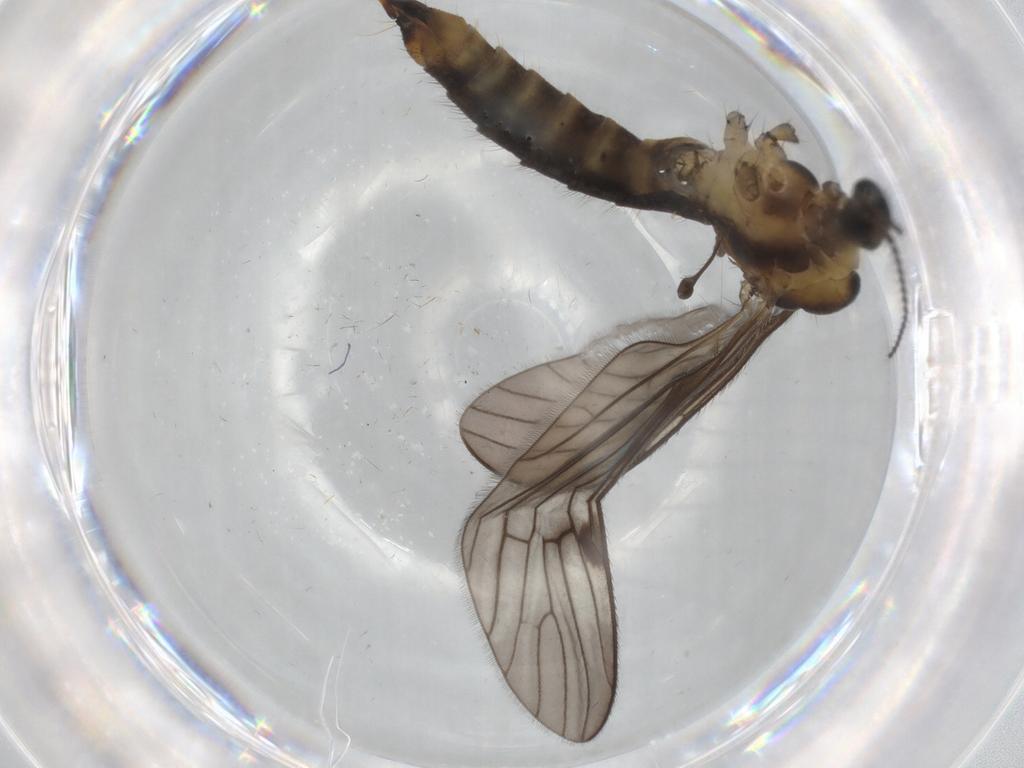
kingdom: Animalia
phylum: Arthropoda
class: Insecta
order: Diptera
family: Limoniidae
